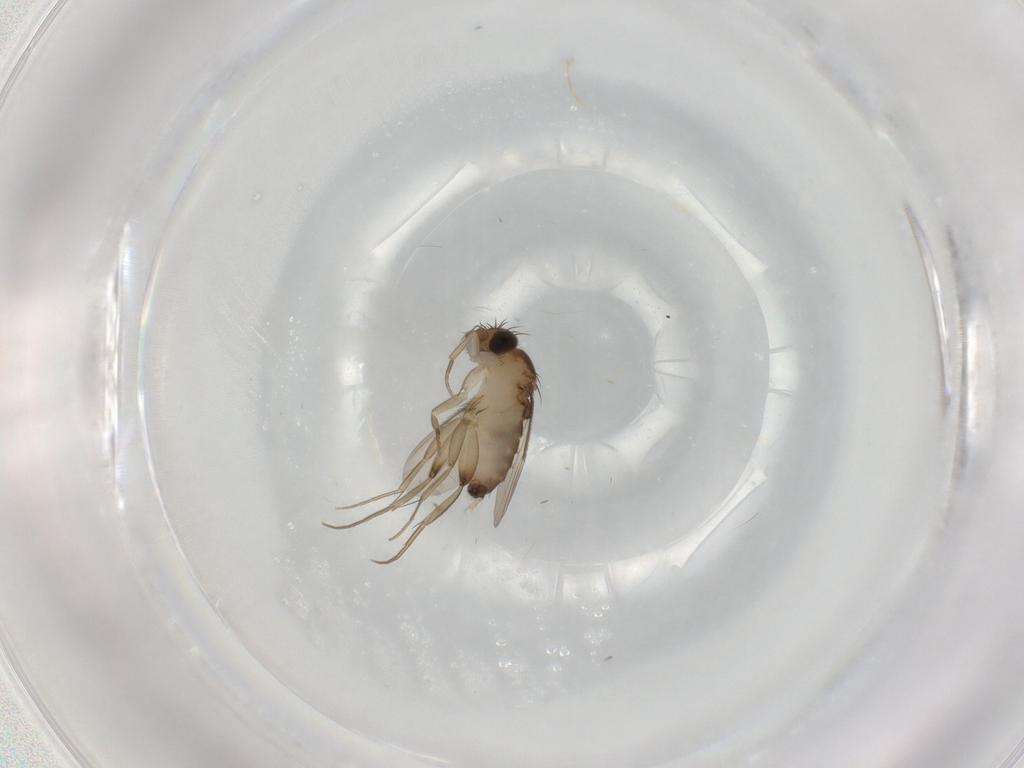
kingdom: Animalia
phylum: Arthropoda
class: Insecta
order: Diptera
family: Phoridae
